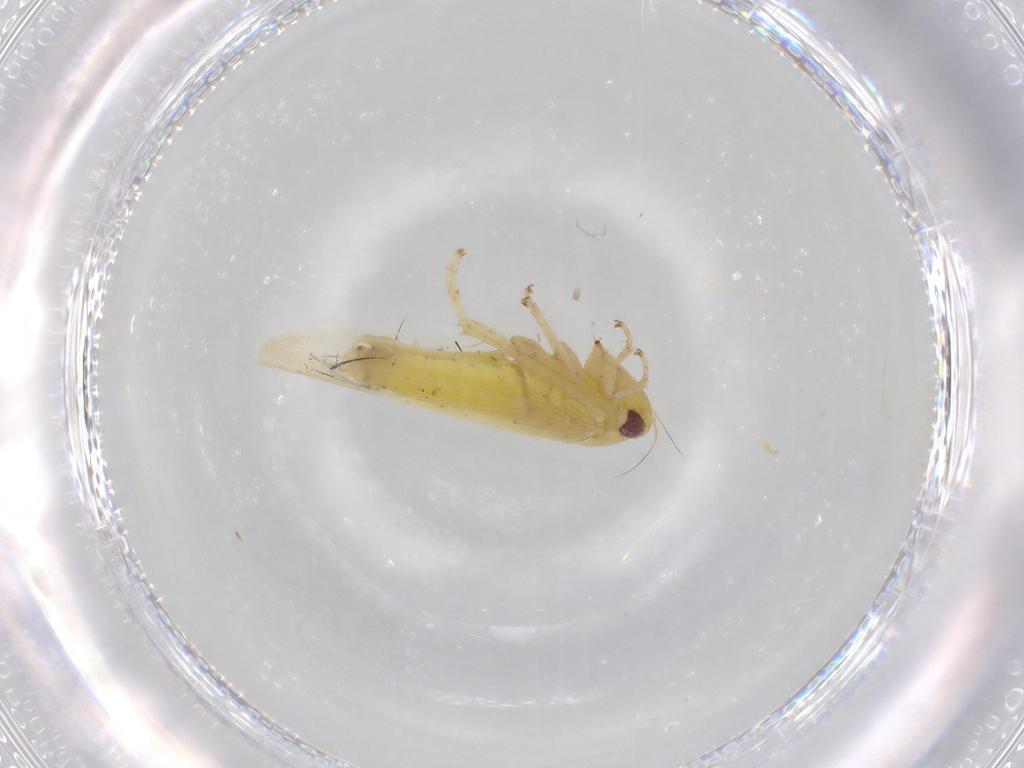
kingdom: Animalia
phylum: Arthropoda
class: Insecta
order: Hemiptera
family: Cicadellidae
